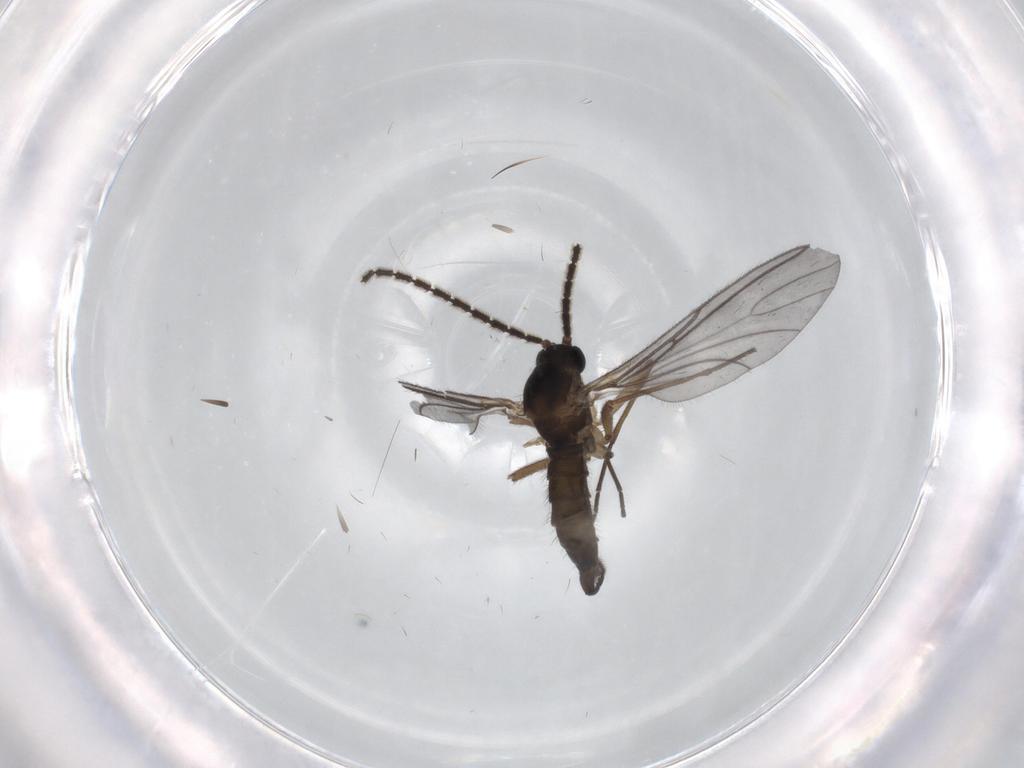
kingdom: Animalia
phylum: Arthropoda
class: Insecta
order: Diptera
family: Sciaridae
